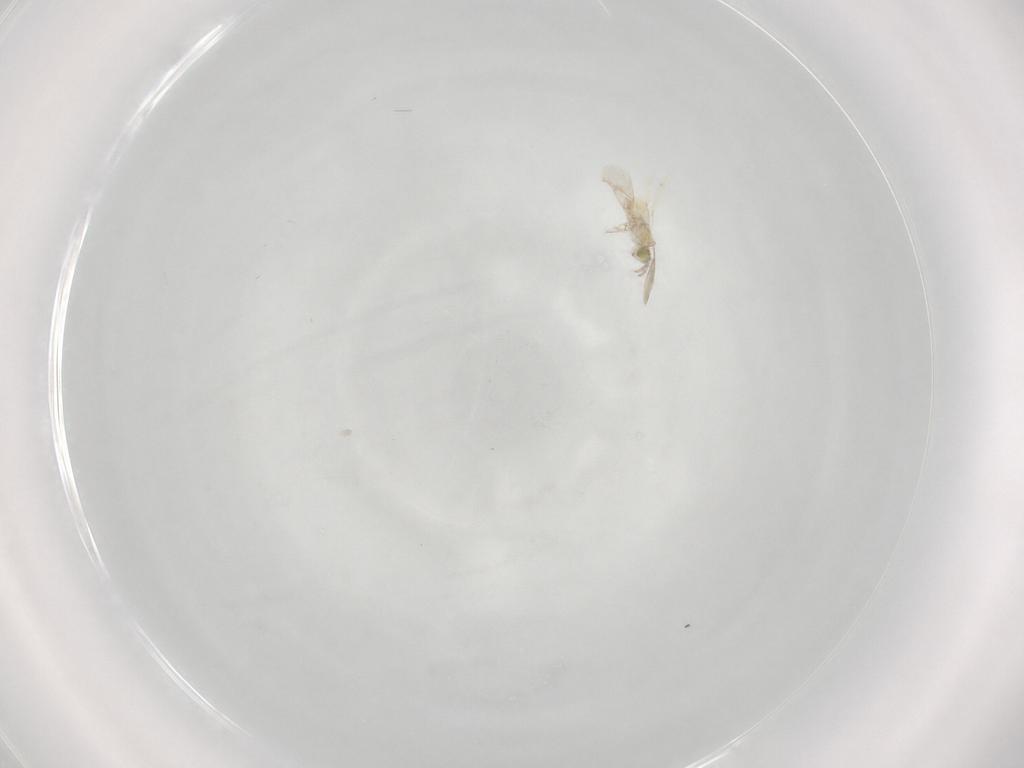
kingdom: Animalia
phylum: Arthropoda
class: Insecta
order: Hymenoptera
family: Aphelinidae
